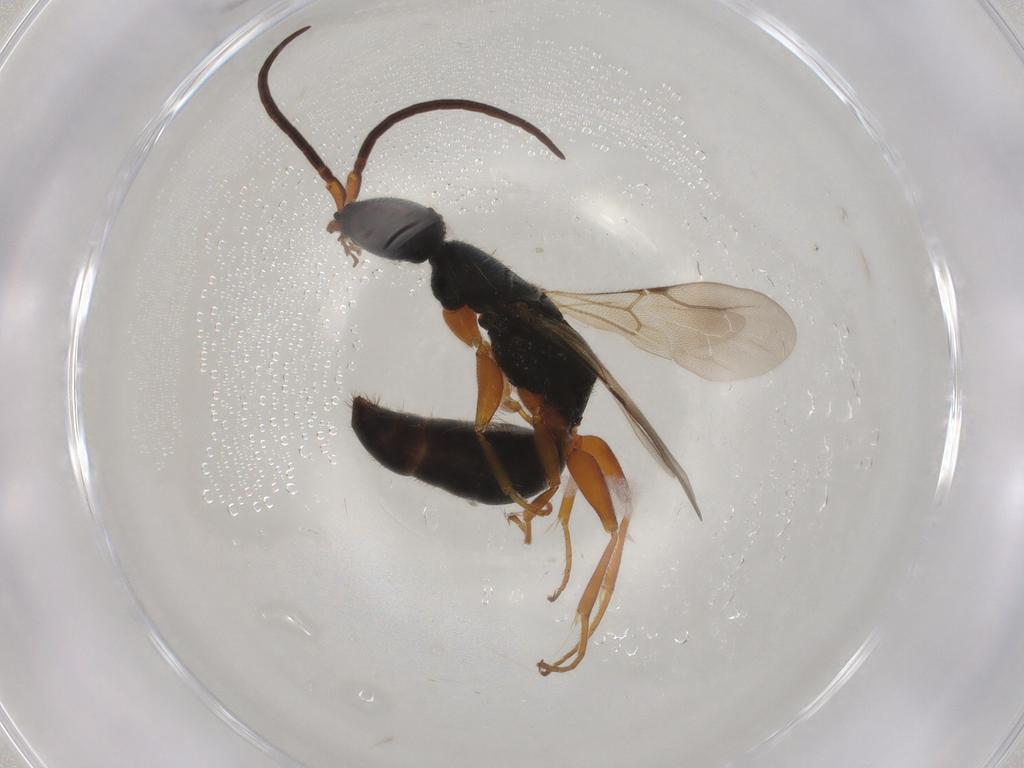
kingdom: Animalia
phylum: Arthropoda
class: Insecta
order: Hymenoptera
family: Bethylidae
